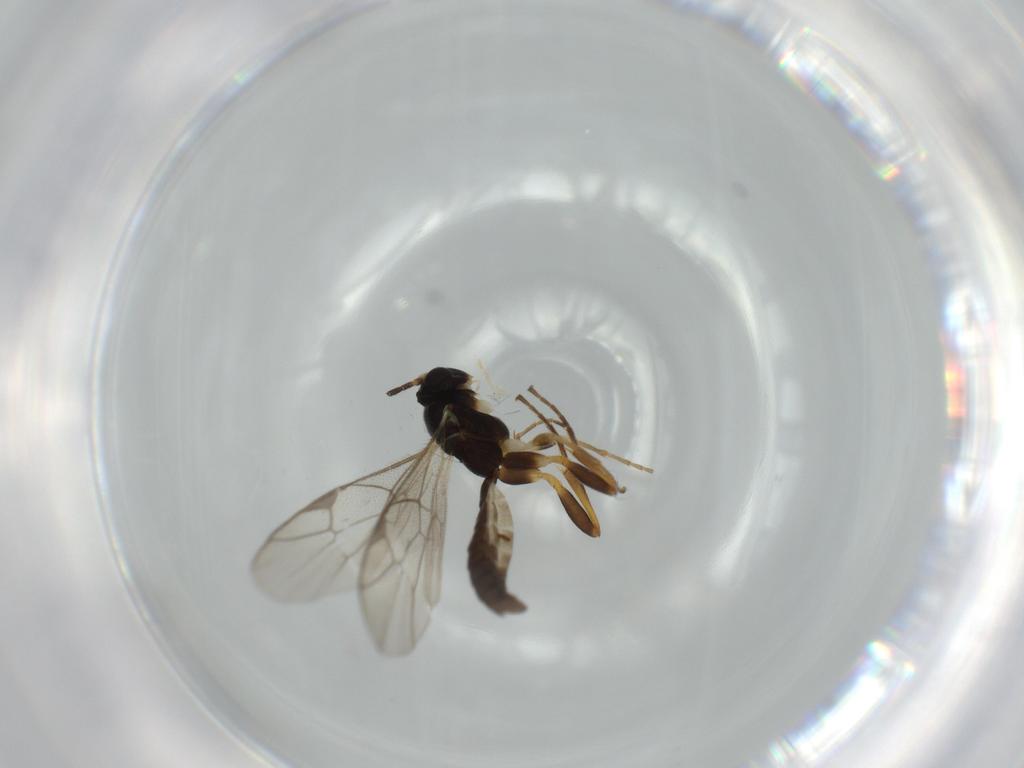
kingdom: Animalia
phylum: Arthropoda
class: Insecta
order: Hymenoptera
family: Ichneumonidae
